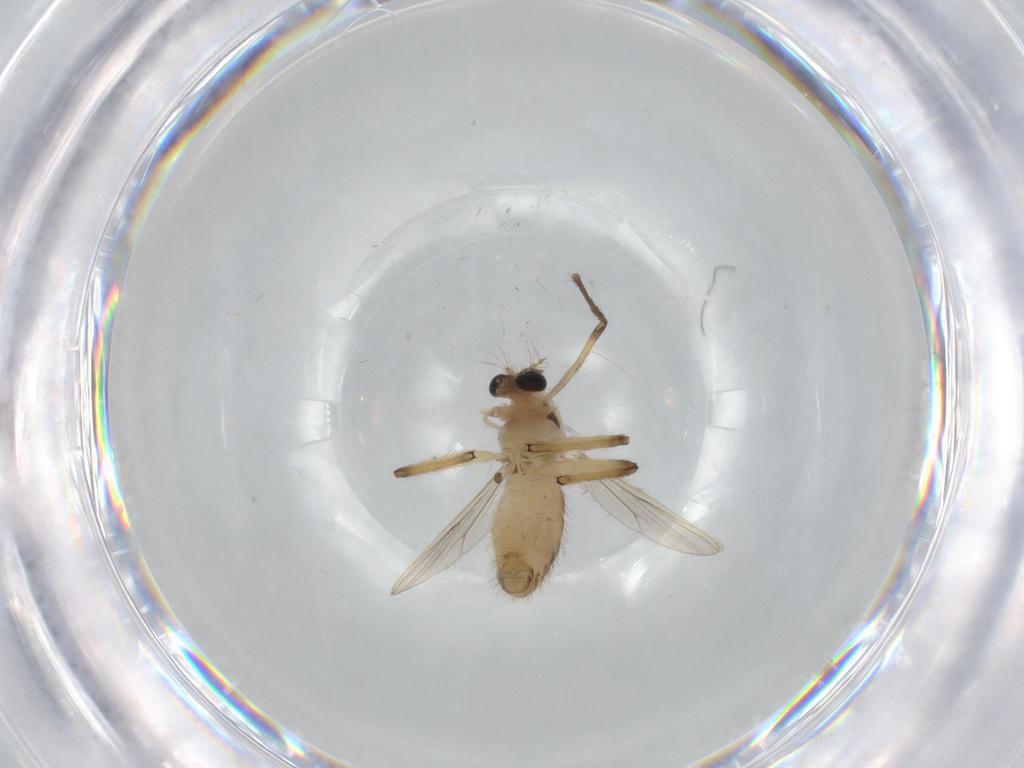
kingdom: Animalia
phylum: Arthropoda
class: Insecta
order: Diptera
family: Chironomidae
